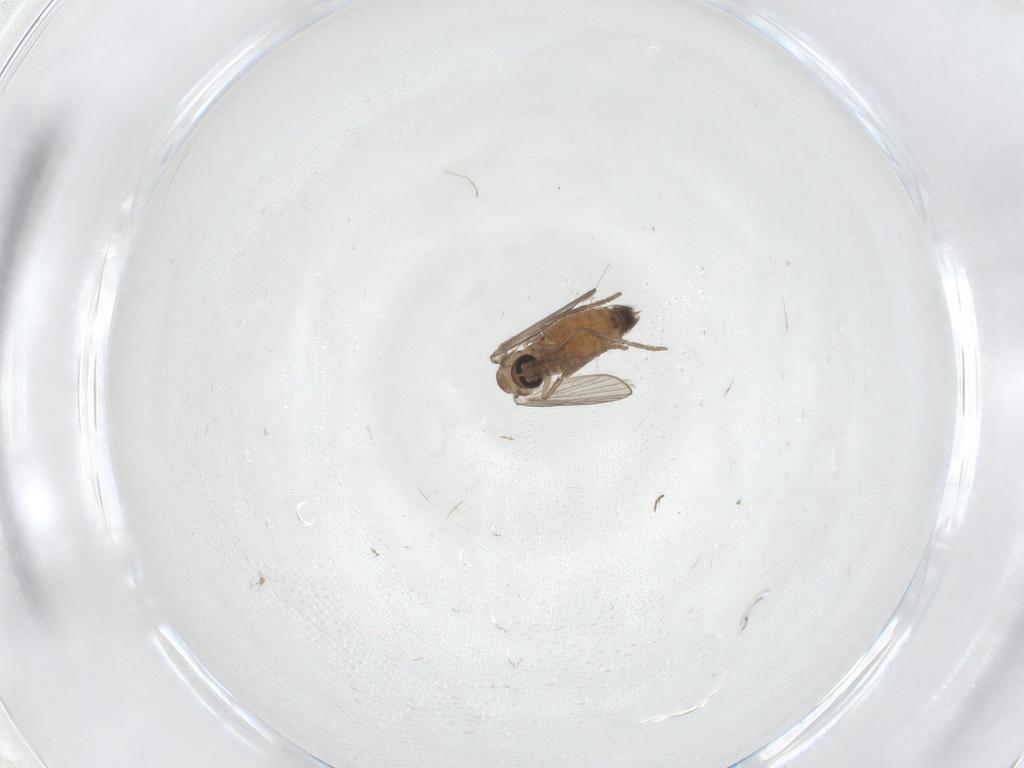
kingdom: Animalia
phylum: Arthropoda
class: Insecta
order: Diptera
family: Psychodidae
